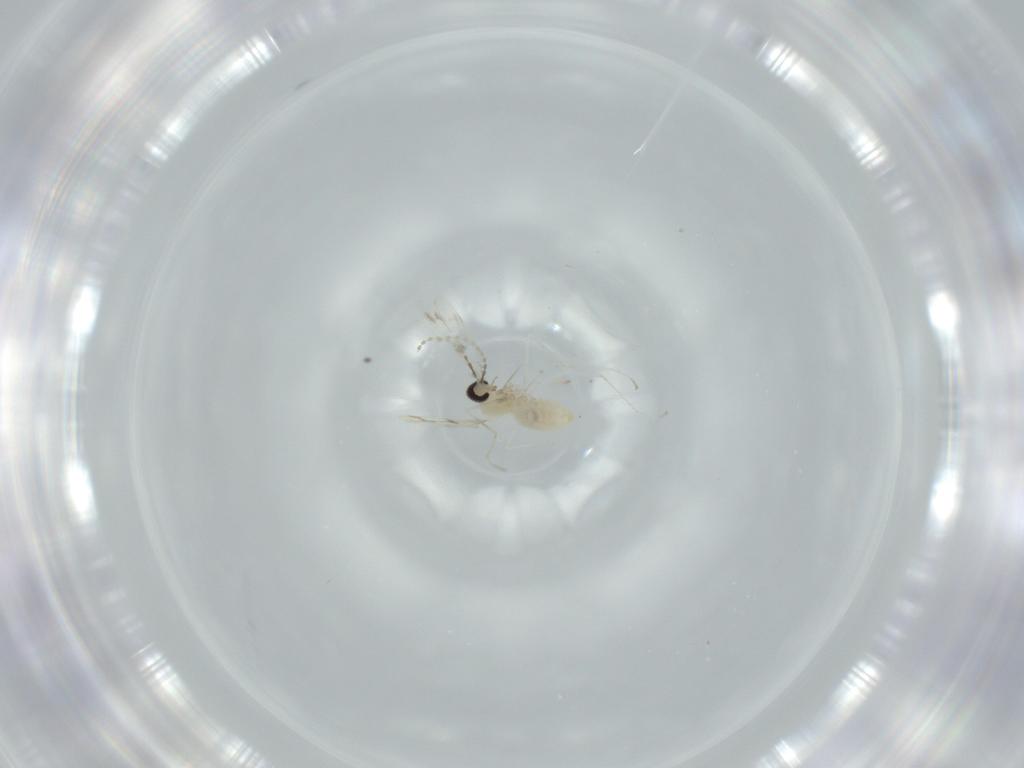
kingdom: Animalia
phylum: Arthropoda
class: Insecta
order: Diptera
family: Cecidomyiidae
